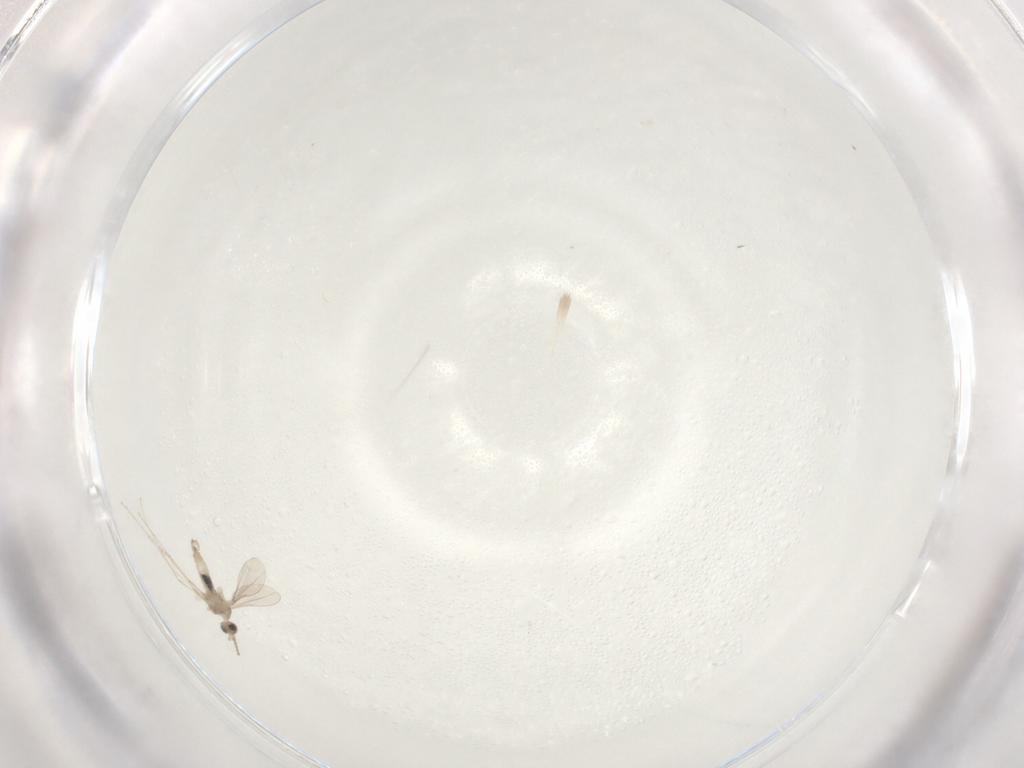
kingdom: Animalia
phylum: Arthropoda
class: Insecta
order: Diptera
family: Cecidomyiidae
